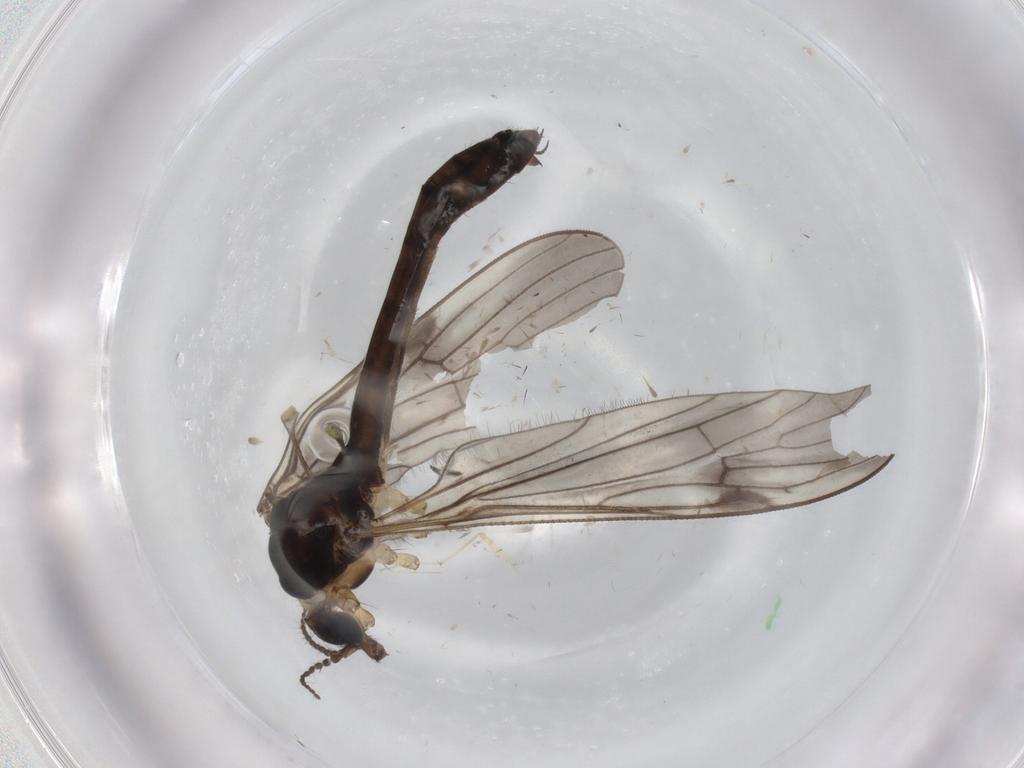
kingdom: Animalia
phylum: Arthropoda
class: Insecta
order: Diptera
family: Limoniidae
